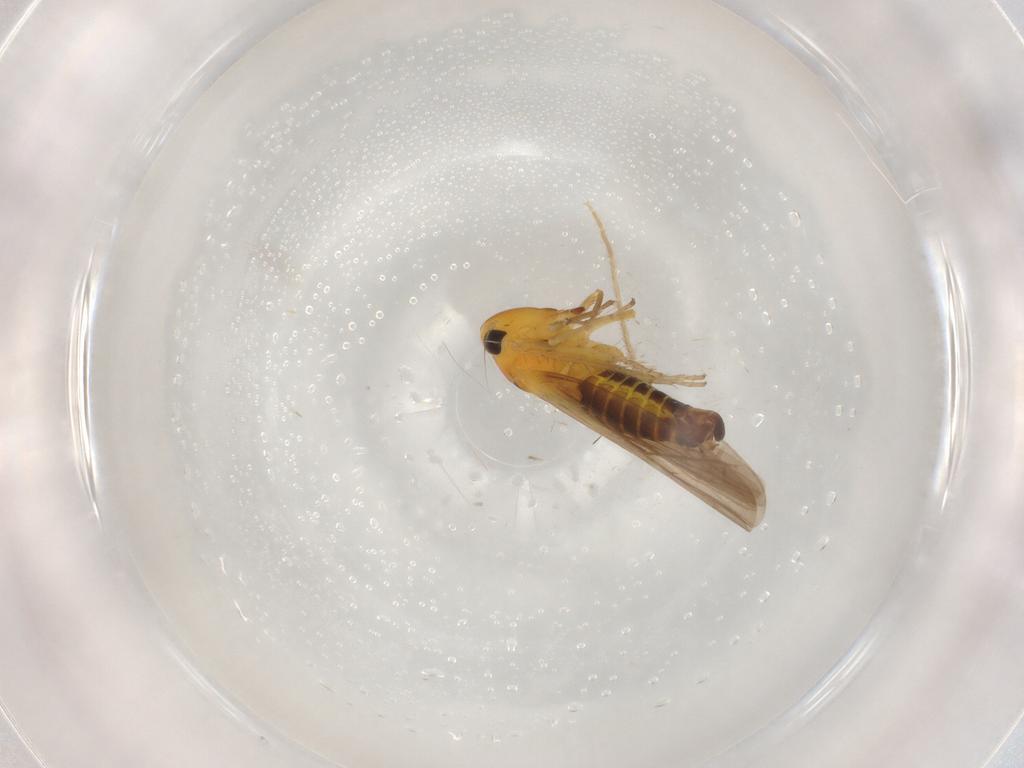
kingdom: Animalia
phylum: Arthropoda
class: Insecta
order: Hemiptera
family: Cicadellidae
